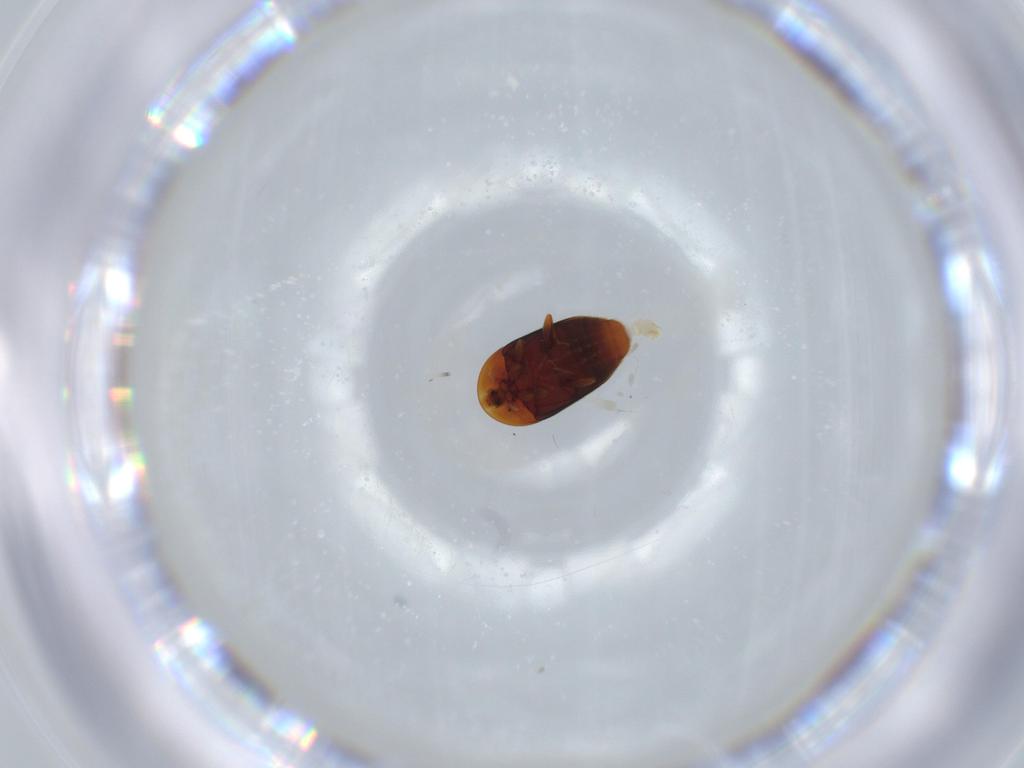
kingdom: Animalia
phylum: Arthropoda
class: Insecta
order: Coleoptera
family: Corylophidae
